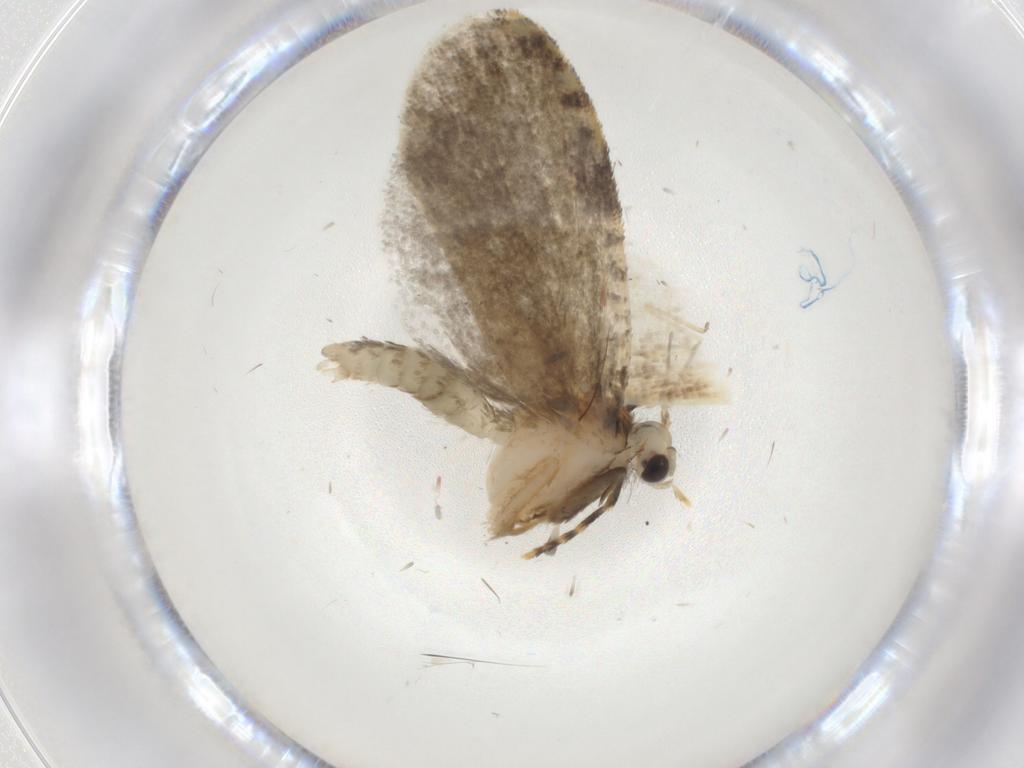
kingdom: Animalia
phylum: Arthropoda
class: Insecta
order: Lepidoptera
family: Psychidae
